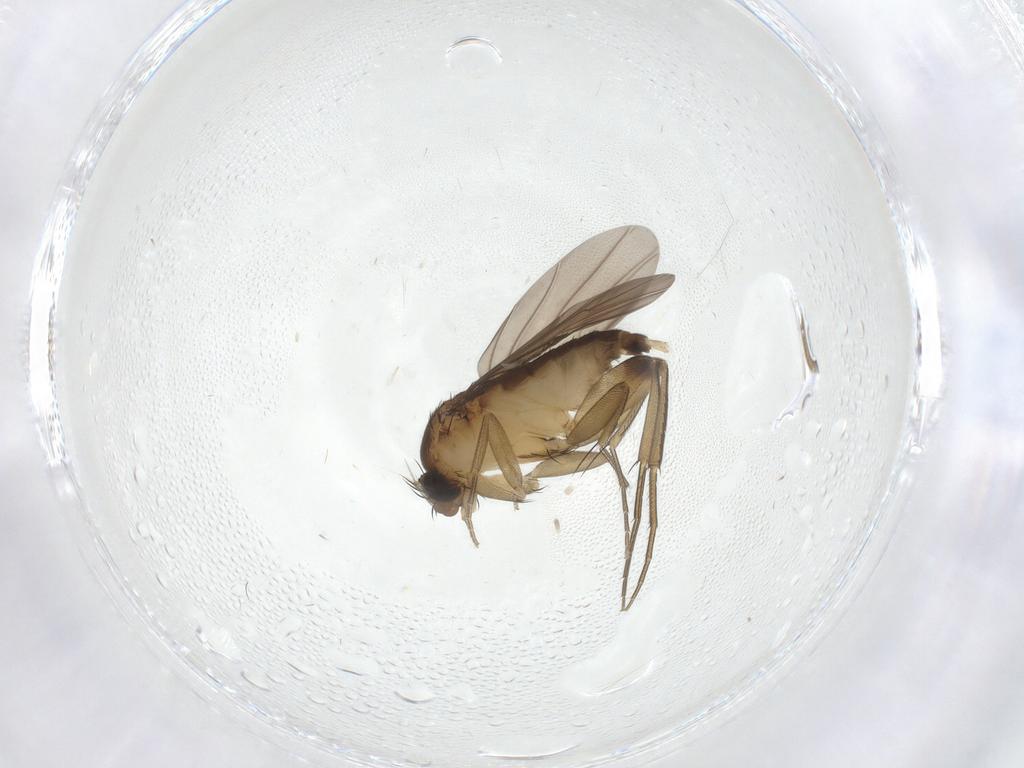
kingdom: Animalia
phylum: Arthropoda
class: Insecta
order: Diptera
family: Phoridae
